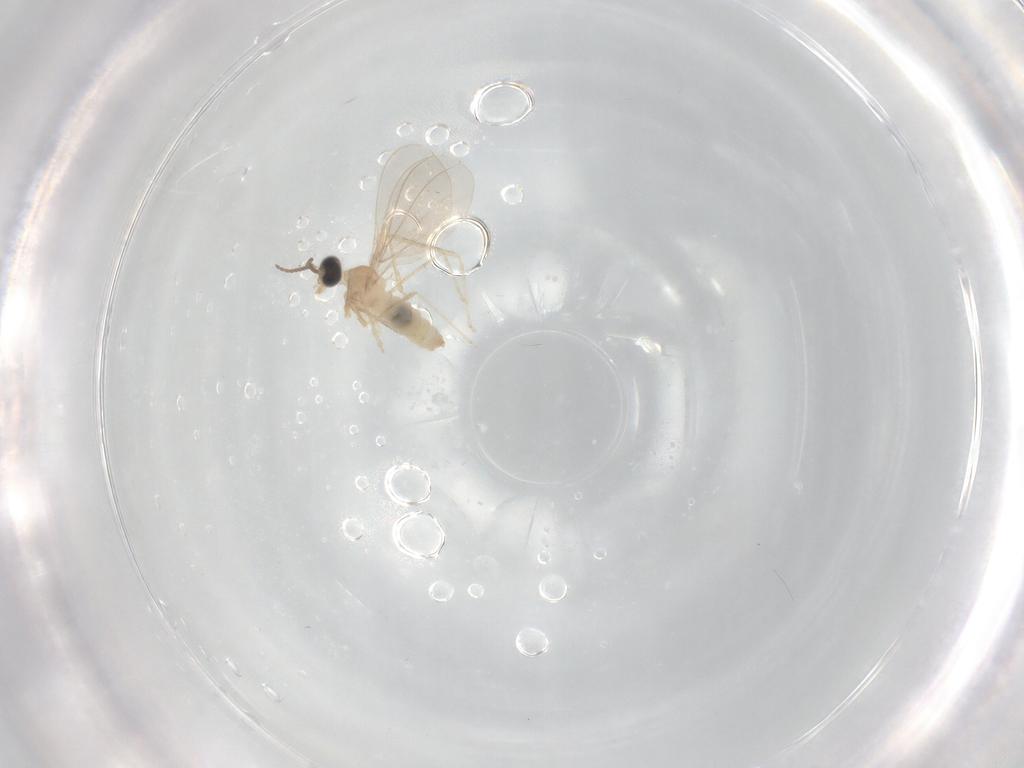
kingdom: Animalia
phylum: Arthropoda
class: Insecta
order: Diptera
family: Cecidomyiidae
